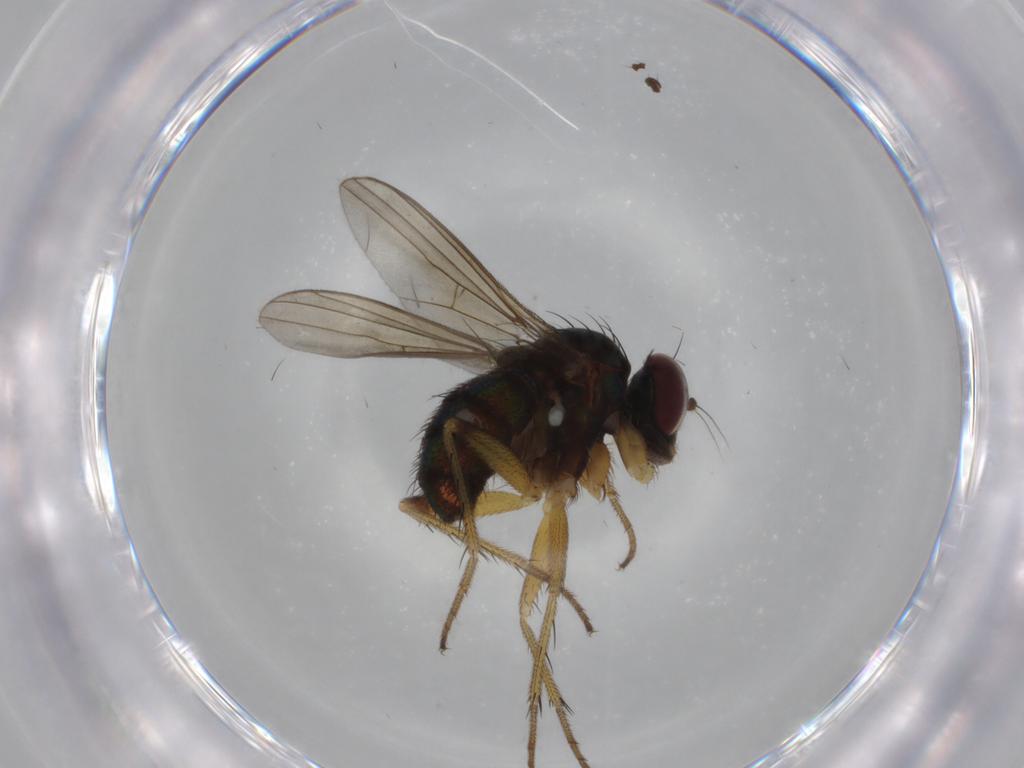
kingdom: Animalia
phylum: Arthropoda
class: Insecta
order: Diptera
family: Dolichopodidae
